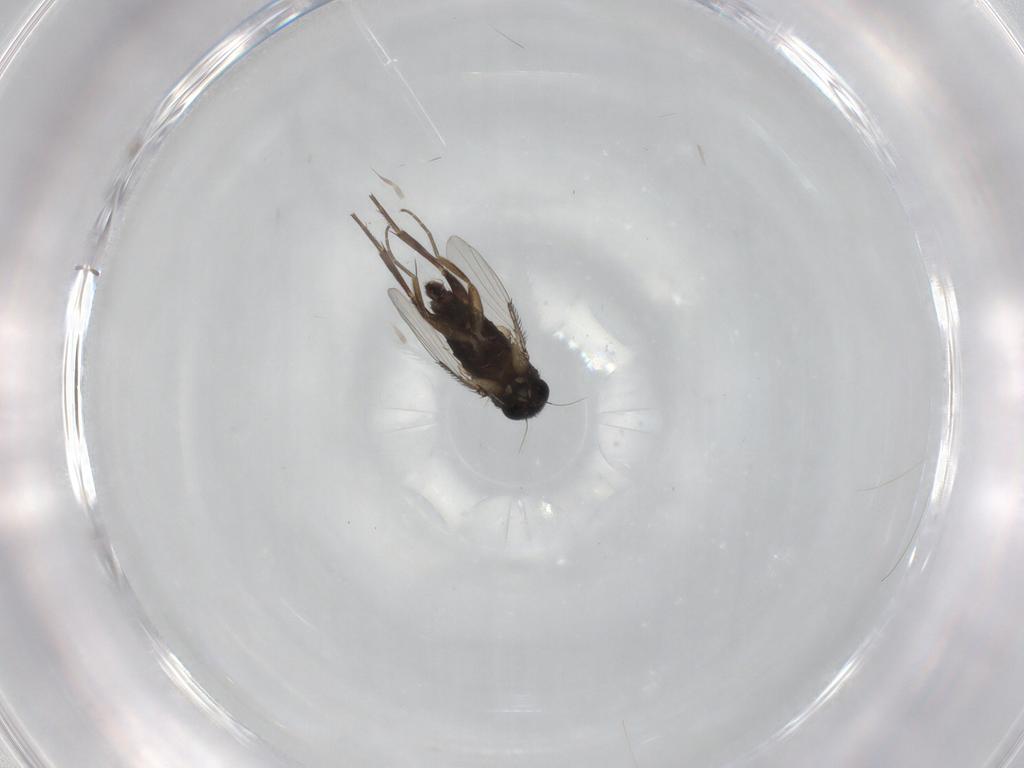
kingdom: Animalia
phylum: Arthropoda
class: Insecta
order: Diptera
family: Phoridae
